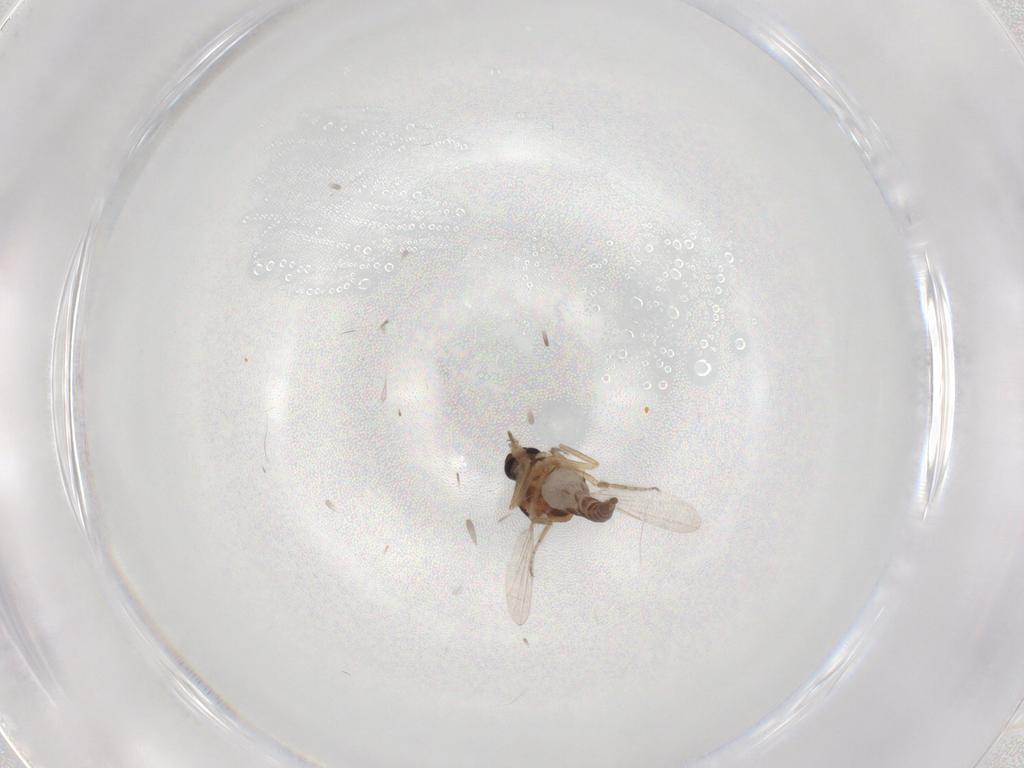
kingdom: Animalia
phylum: Arthropoda
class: Insecta
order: Diptera
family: Ceratopogonidae
